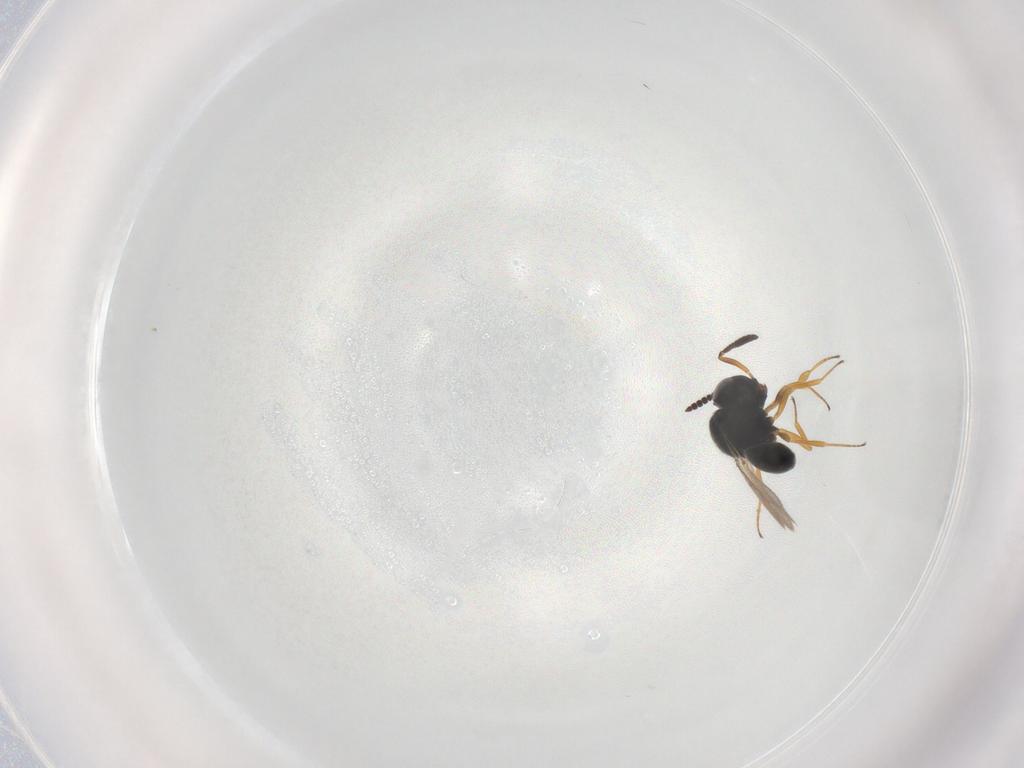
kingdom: Animalia
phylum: Arthropoda
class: Insecta
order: Hymenoptera
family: Scelionidae
